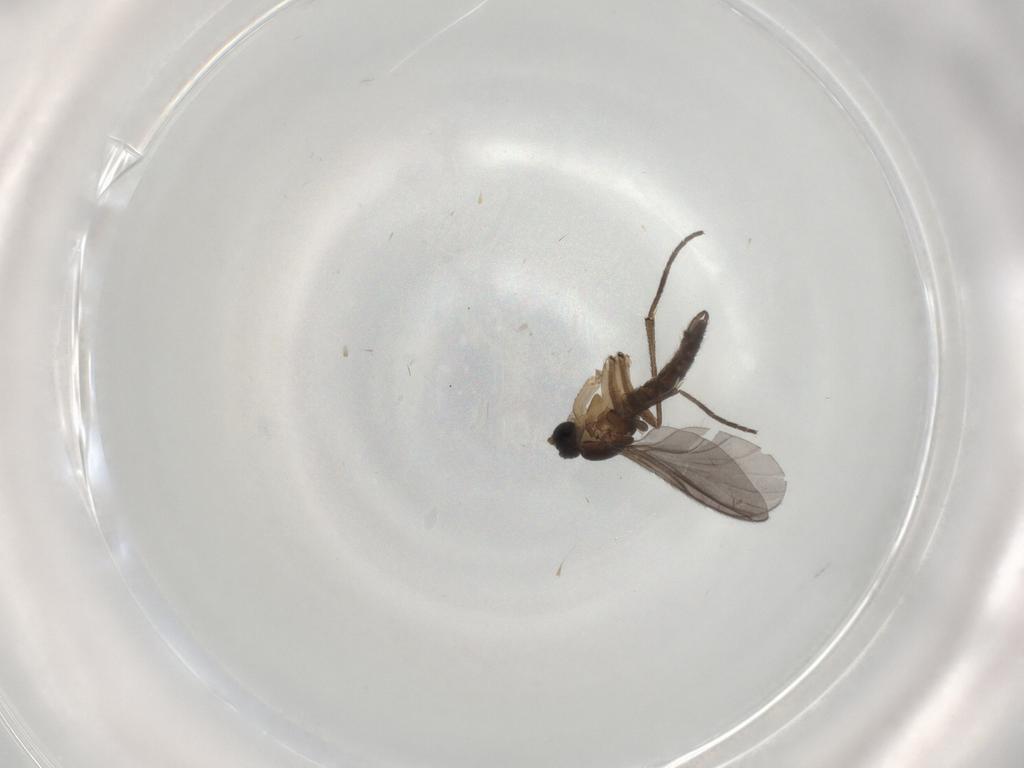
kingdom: Animalia
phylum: Arthropoda
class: Insecta
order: Diptera
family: Sciaridae
